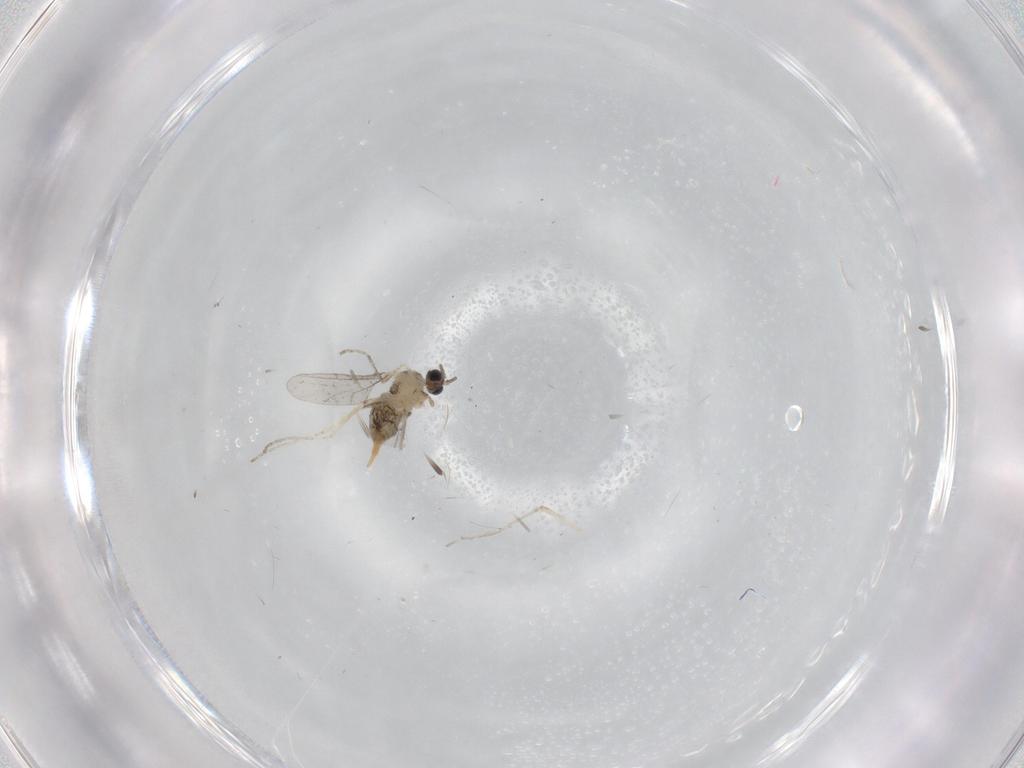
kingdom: Animalia
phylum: Arthropoda
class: Insecta
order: Diptera
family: Cecidomyiidae
